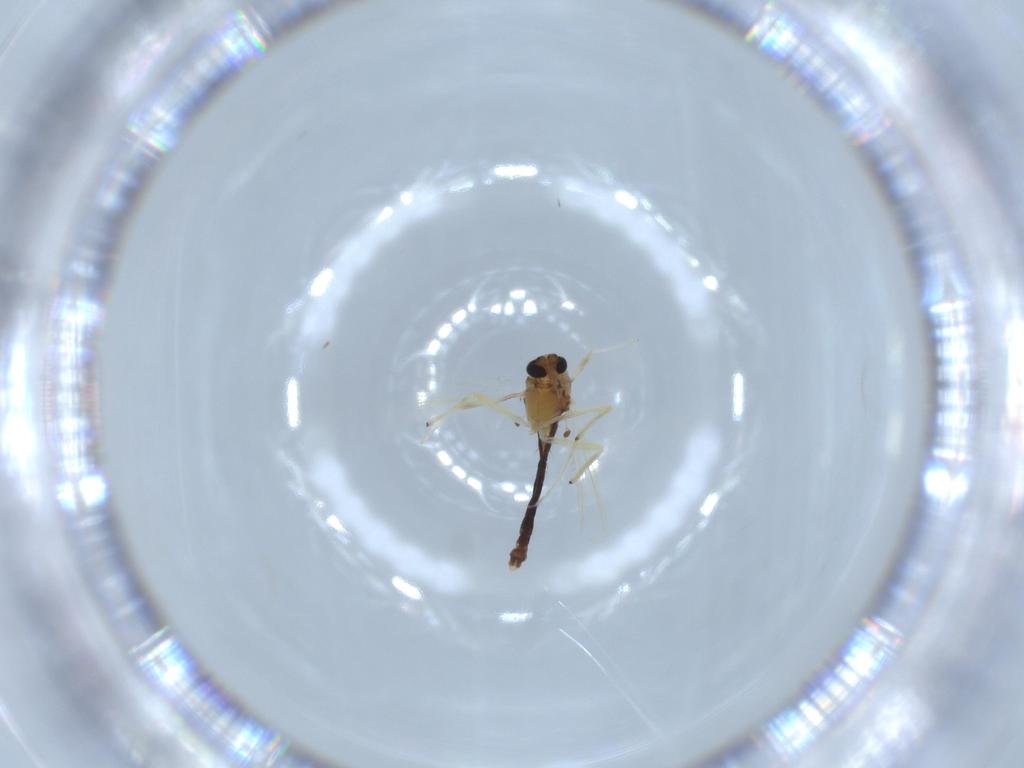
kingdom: Animalia
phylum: Arthropoda
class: Insecta
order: Diptera
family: Chironomidae
